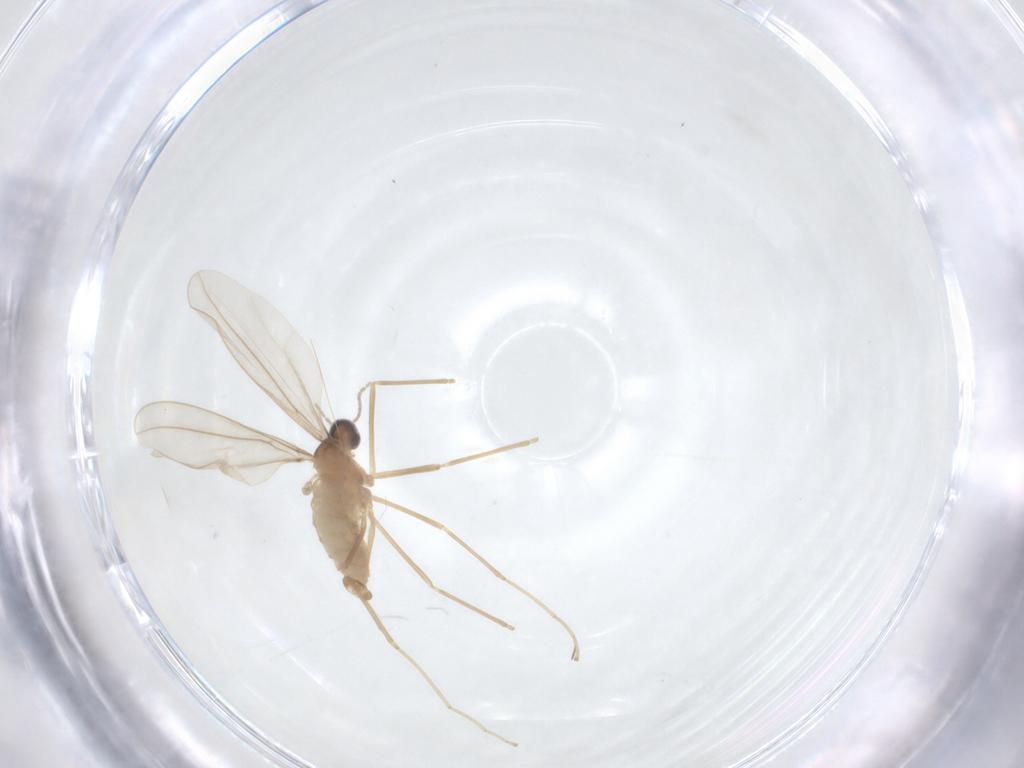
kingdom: Animalia
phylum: Arthropoda
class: Insecta
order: Diptera
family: Cecidomyiidae
